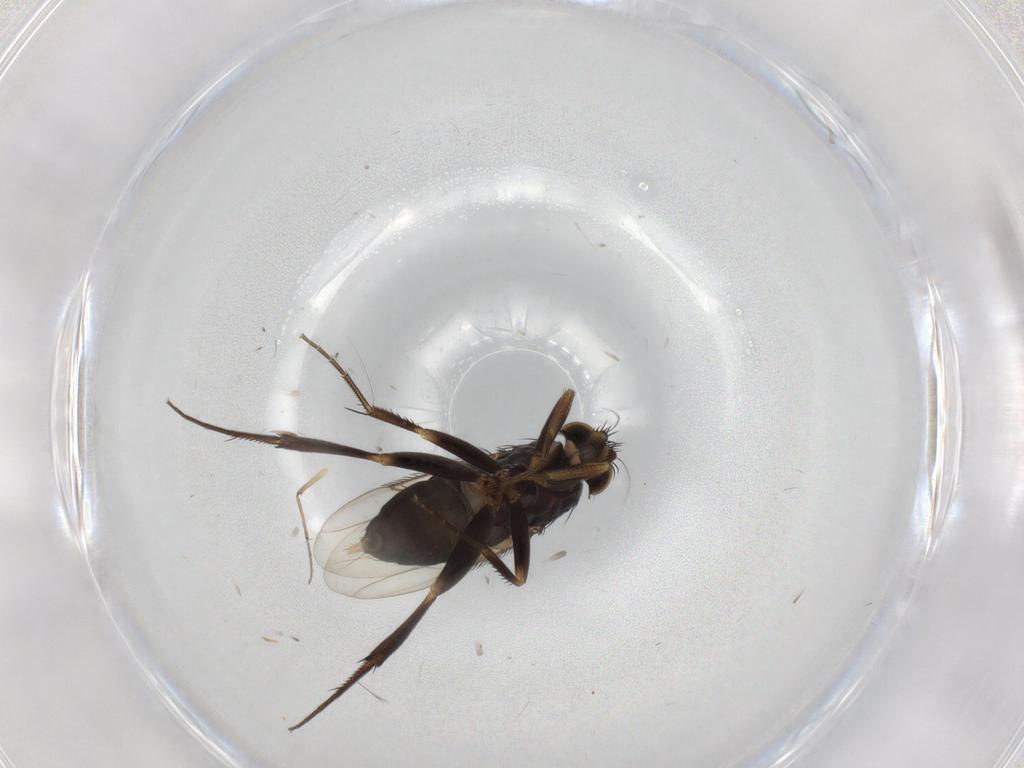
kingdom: Animalia
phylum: Arthropoda
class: Insecta
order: Diptera
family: Phoridae
